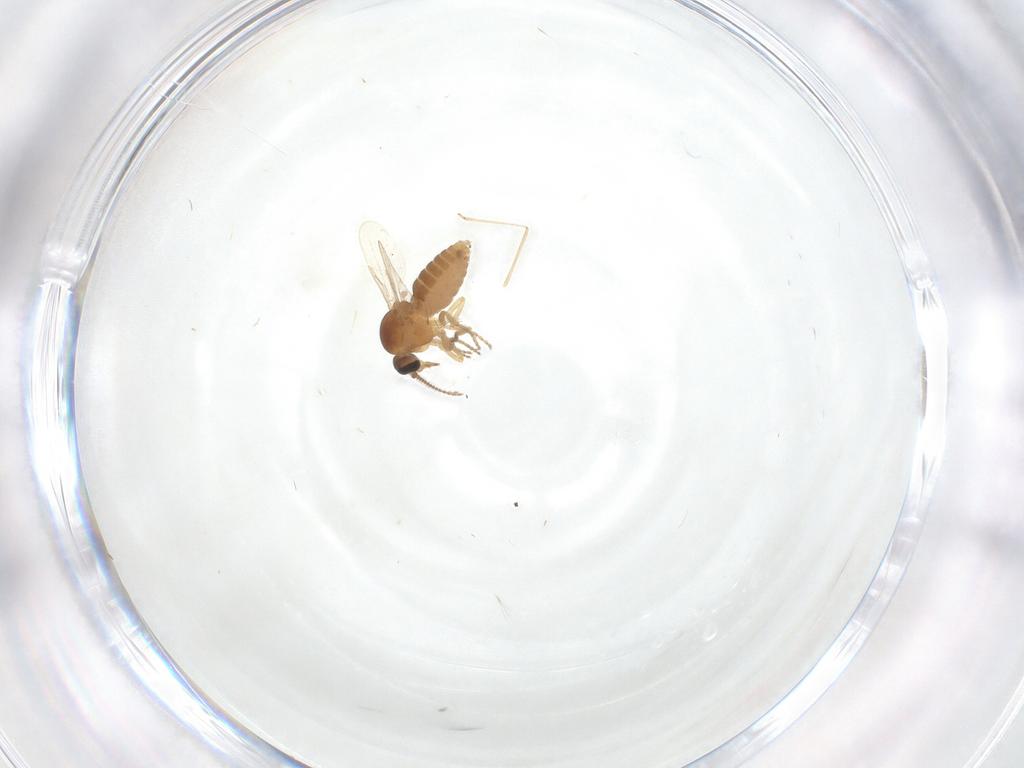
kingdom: Animalia
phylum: Arthropoda
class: Insecta
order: Diptera
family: Ceratopogonidae
